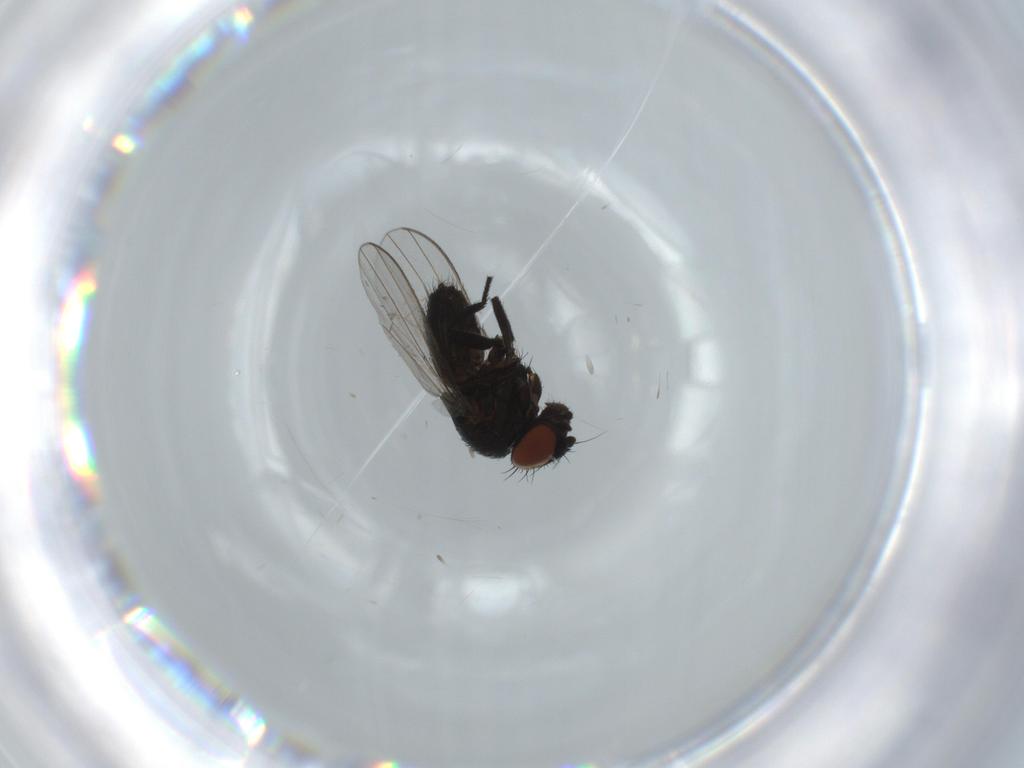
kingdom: Animalia
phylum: Arthropoda
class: Insecta
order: Diptera
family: Milichiidae
